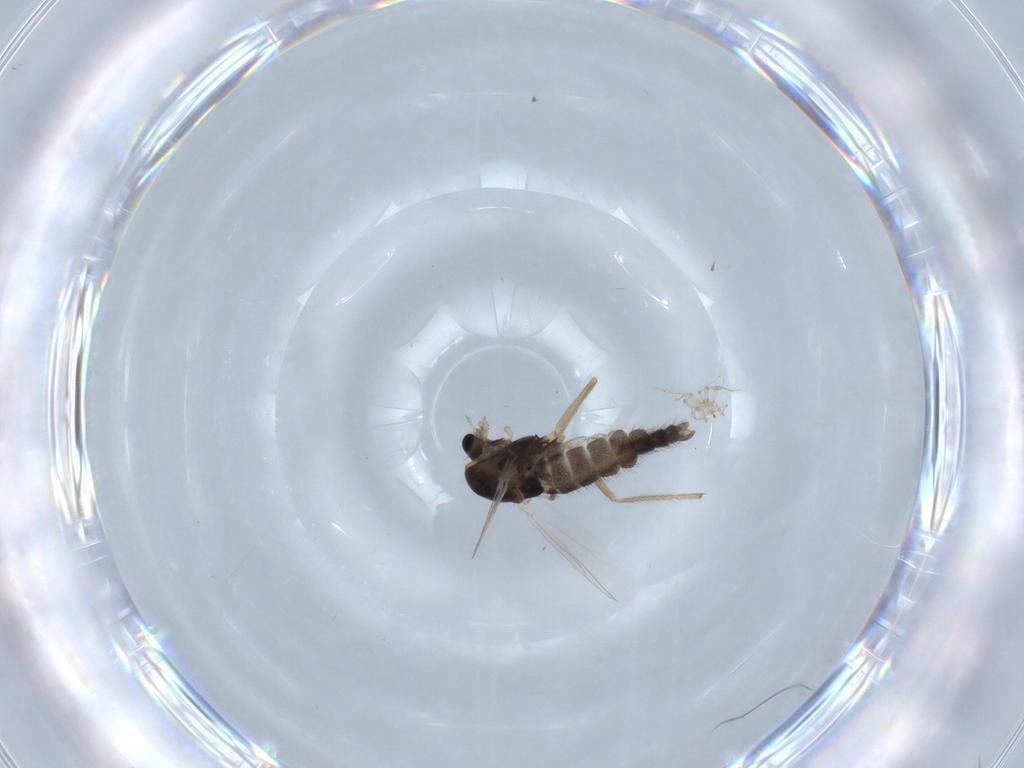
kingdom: Animalia
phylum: Arthropoda
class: Insecta
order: Diptera
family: Chironomidae
